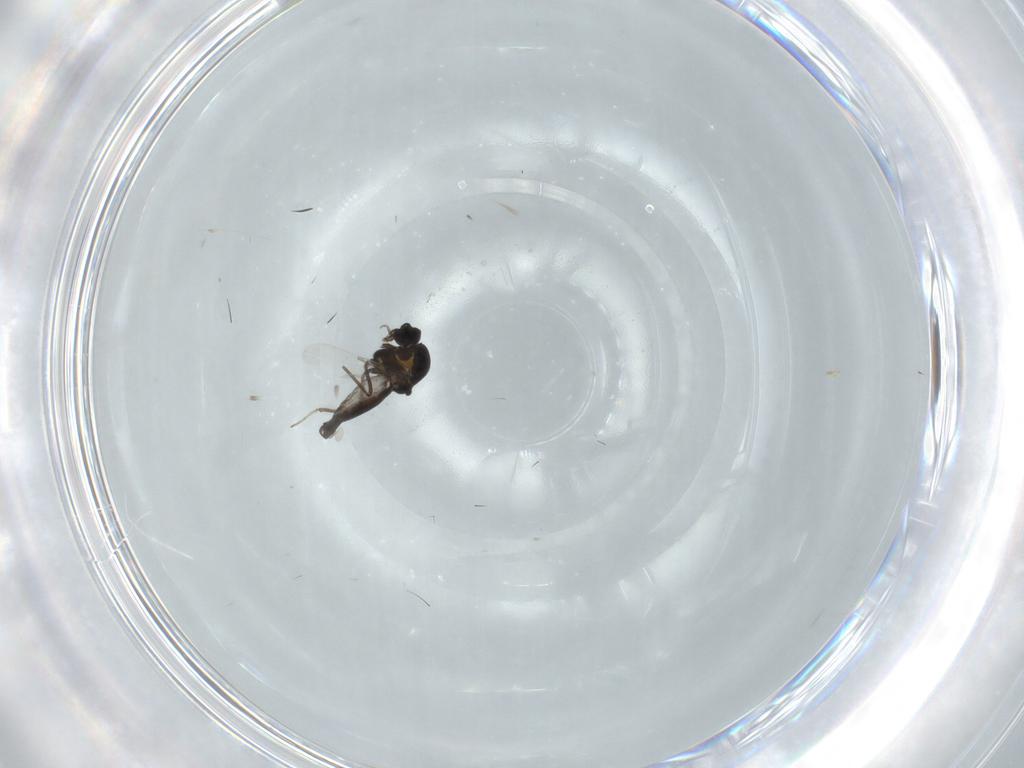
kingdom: Animalia
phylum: Arthropoda
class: Insecta
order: Diptera
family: Ceratopogonidae
